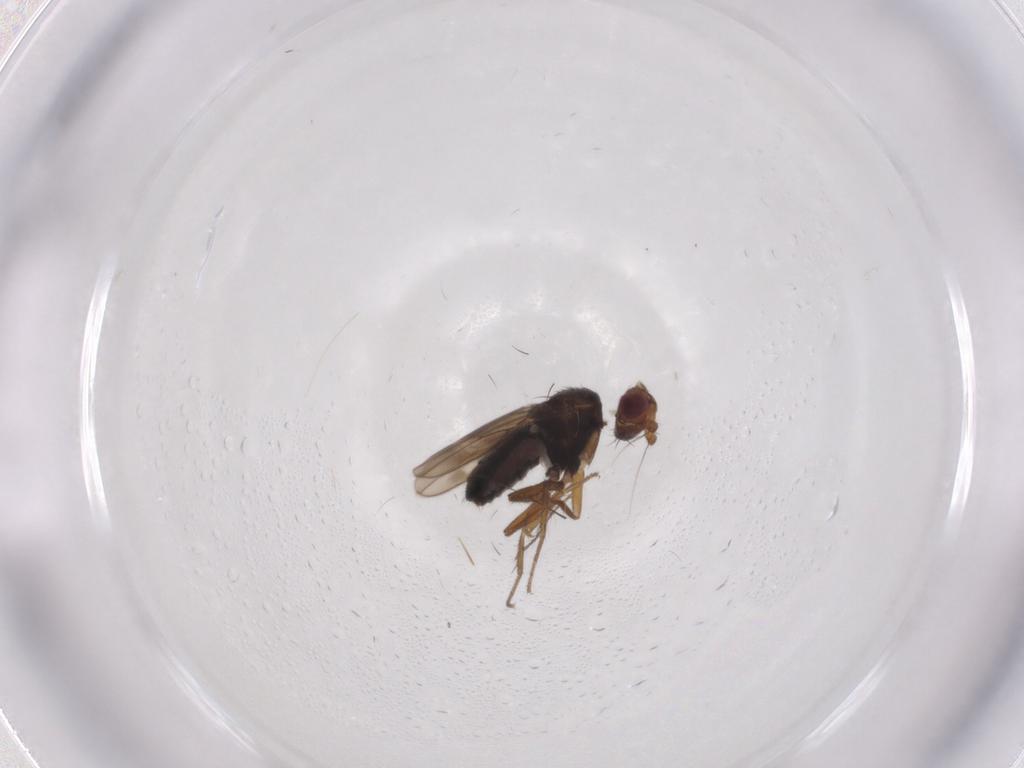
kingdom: Animalia
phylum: Arthropoda
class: Insecta
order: Diptera
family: Sphaeroceridae
